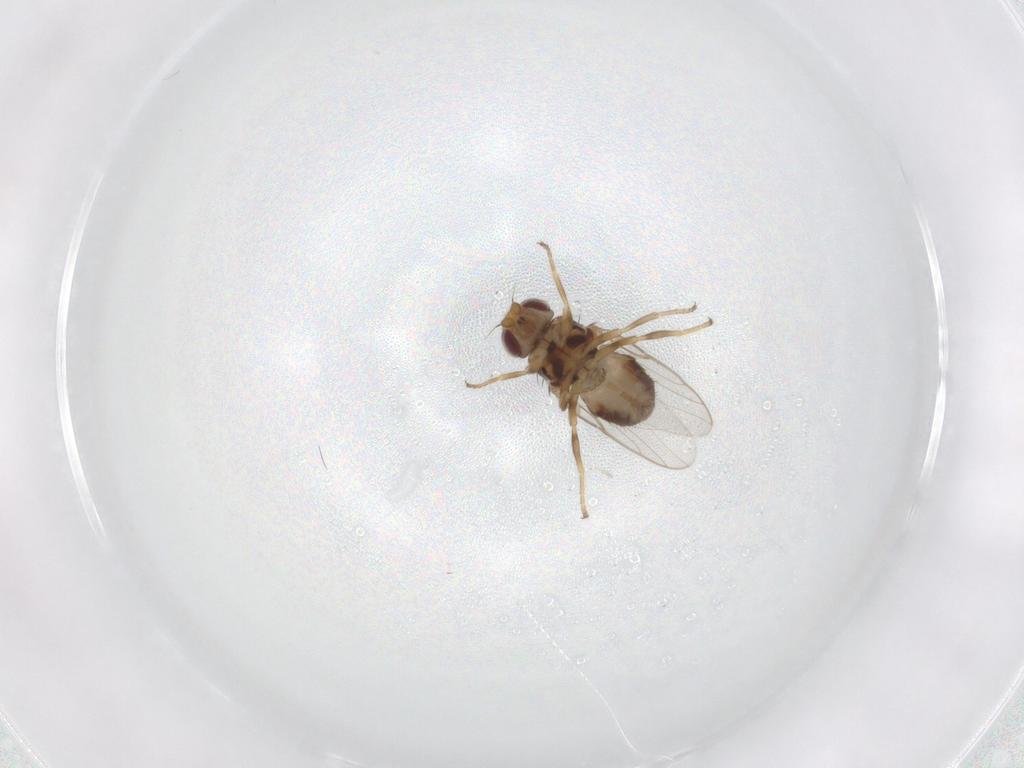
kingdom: Animalia
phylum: Arthropoda
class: Insecta
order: Diptera
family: Chloropidae
